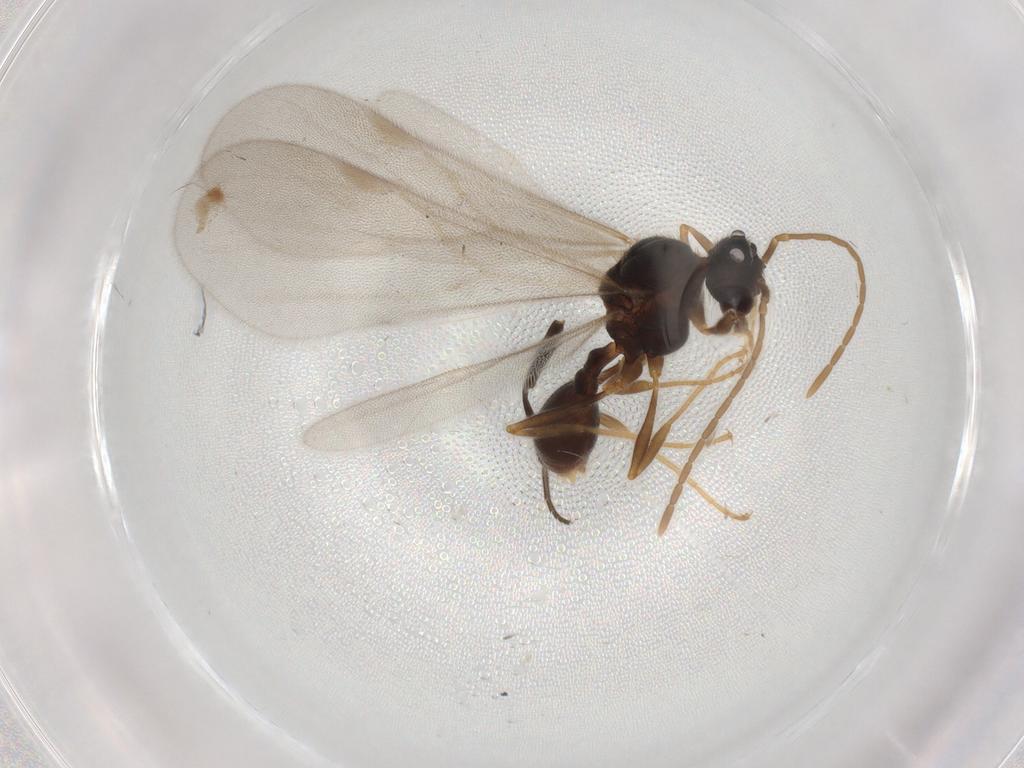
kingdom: Animalia
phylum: Arthropoda
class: Insecta
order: Hymenoptera
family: Formicidae
